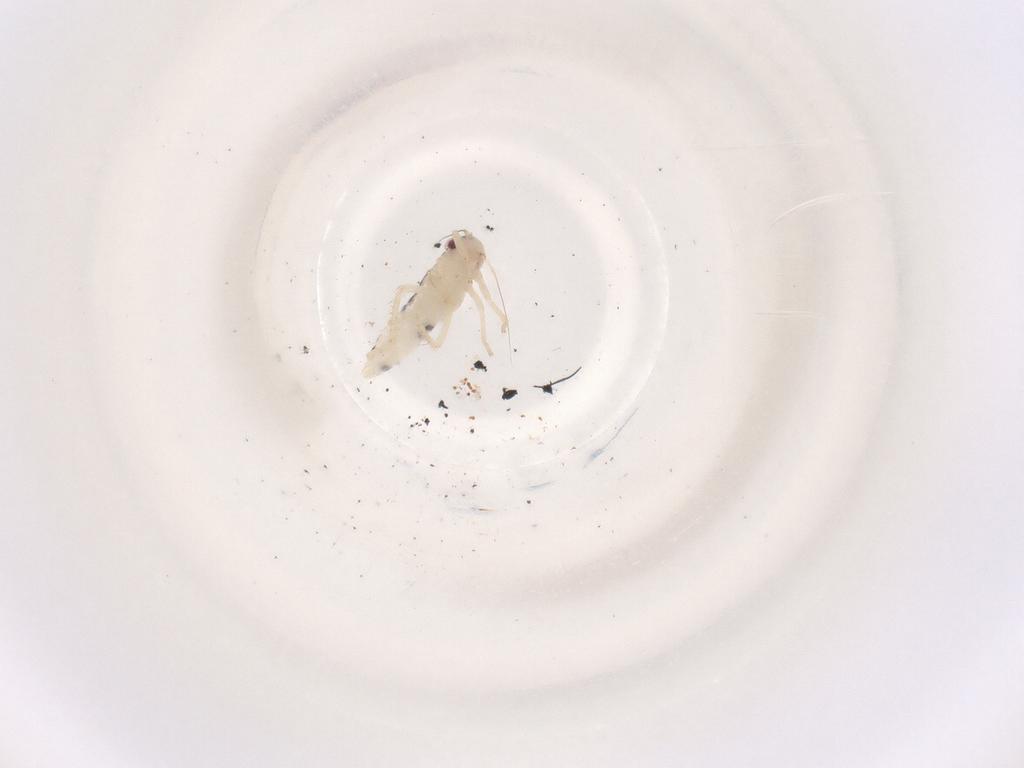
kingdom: Animalia
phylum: Arthropoda
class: Insecta
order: Hemiptera
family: Cicadellidae
